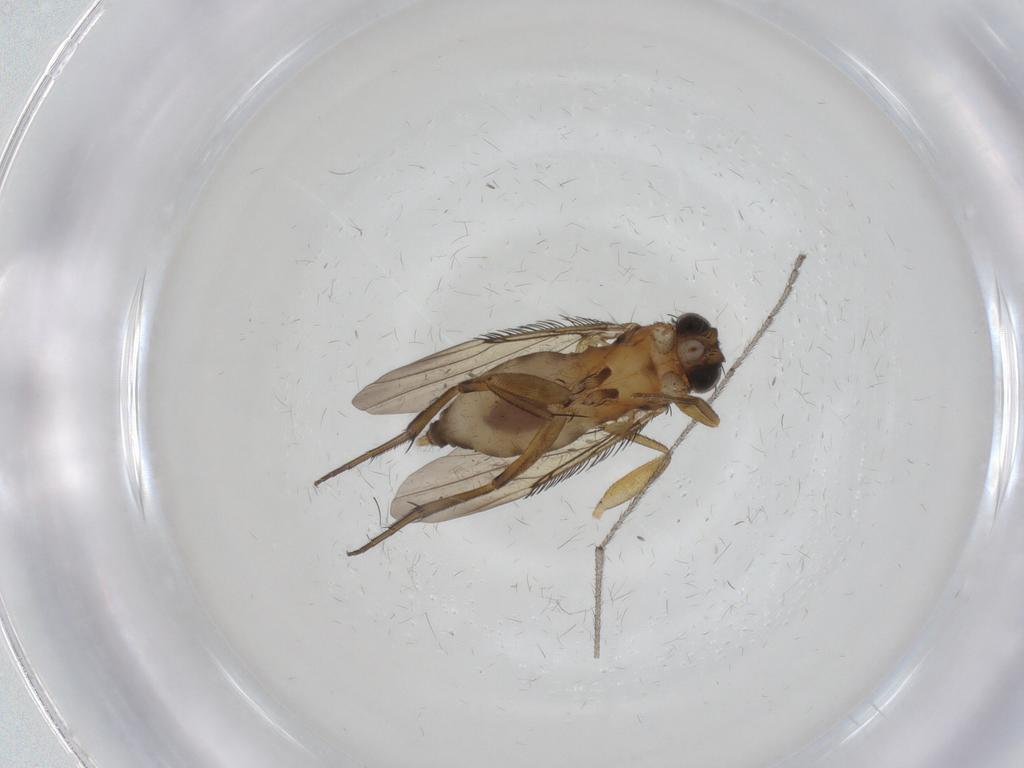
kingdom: Animalia
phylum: Arthropoda
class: Insecta
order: Diptera
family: Phoridae
